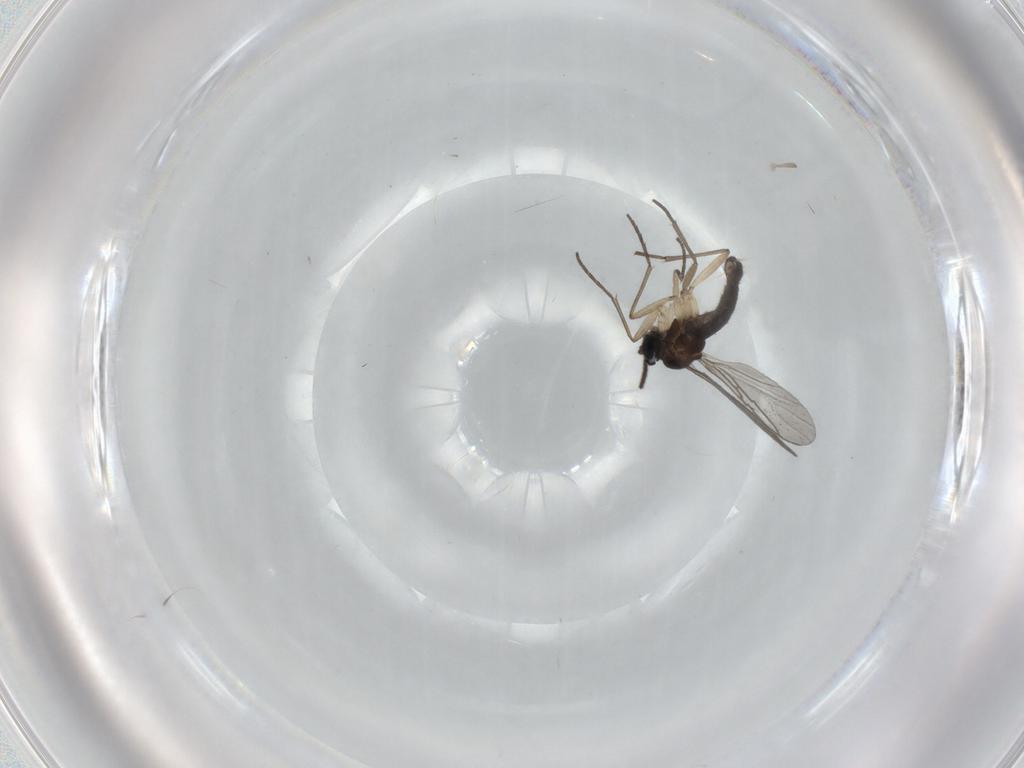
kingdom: Animalia
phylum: Arthropoda
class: Insecta
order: Diptera
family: Sciaridae
